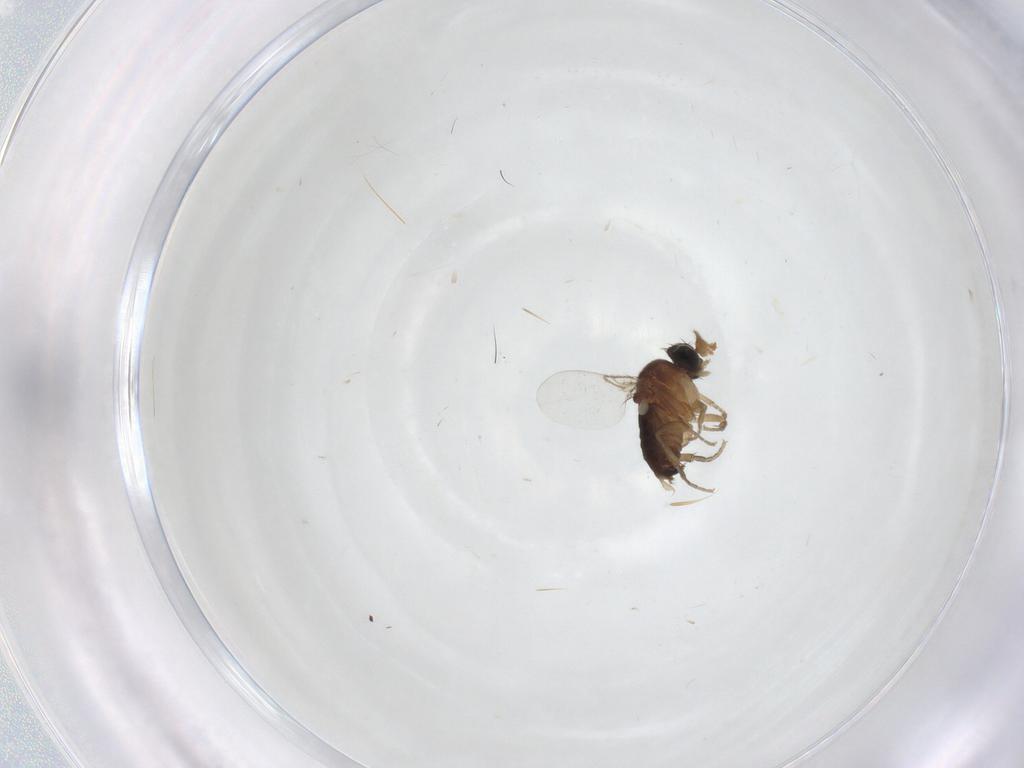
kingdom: Animalia
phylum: Arthropoda
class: Insecta
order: Diptera
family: Phoridae
